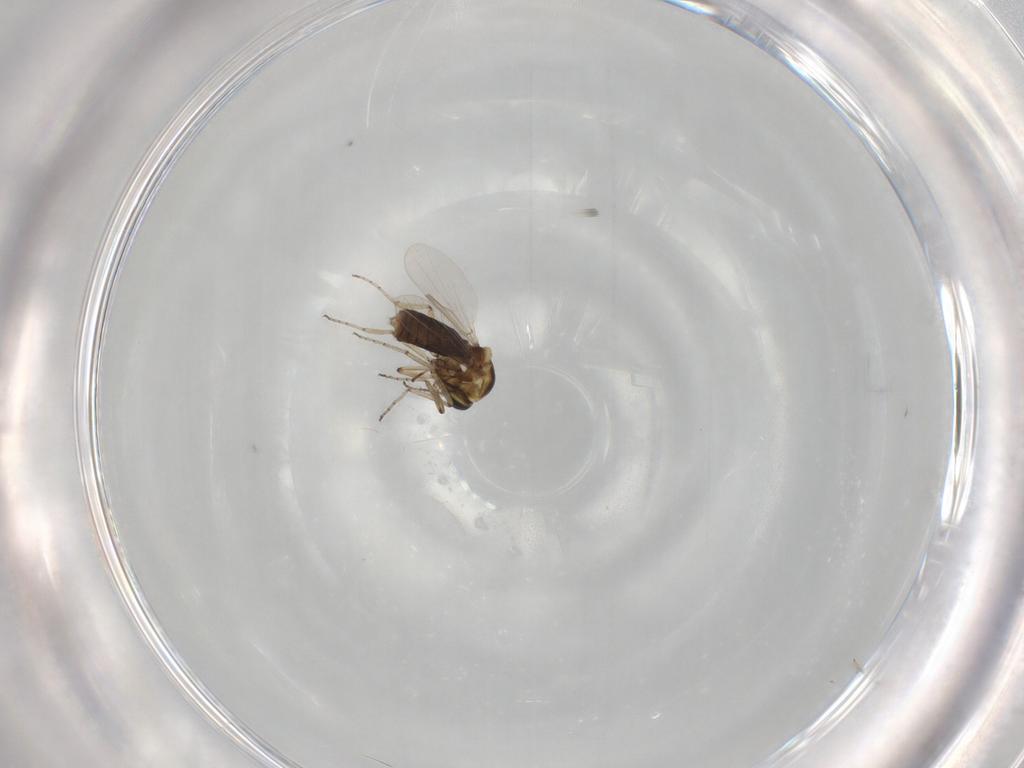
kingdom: Animalia
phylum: Arthropoda
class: Insecta
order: Diptera
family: Ceratopogonidae
